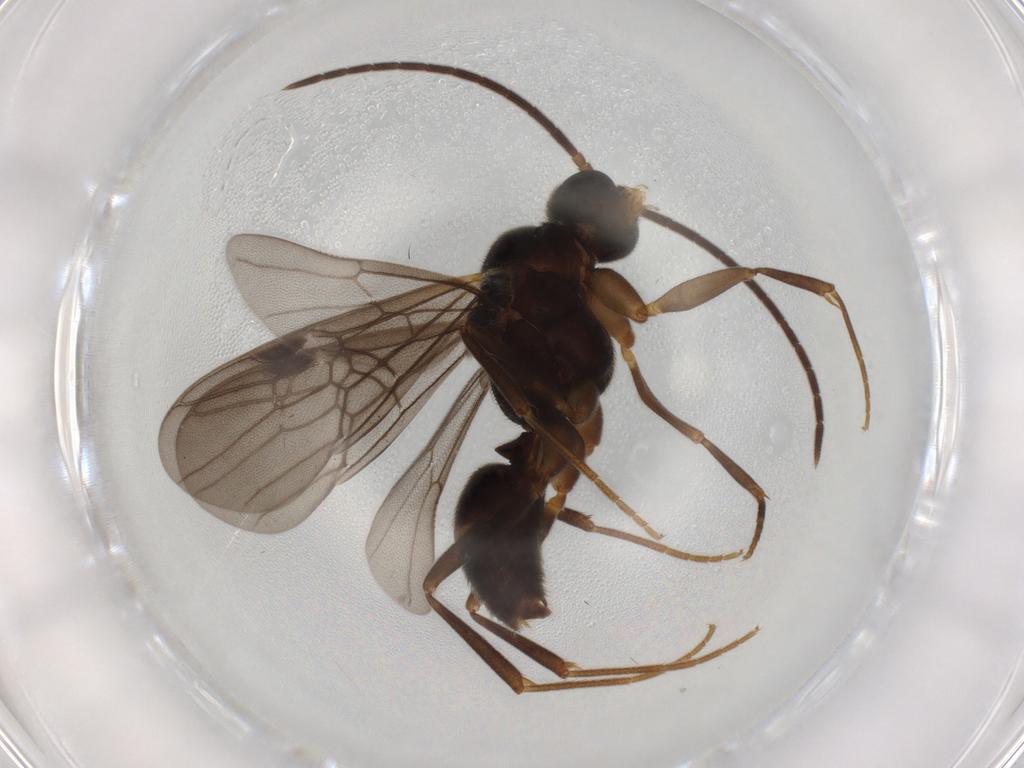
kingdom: Animalia
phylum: Arthropoda
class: Insecta
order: Hymenoptera
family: Formicidae
